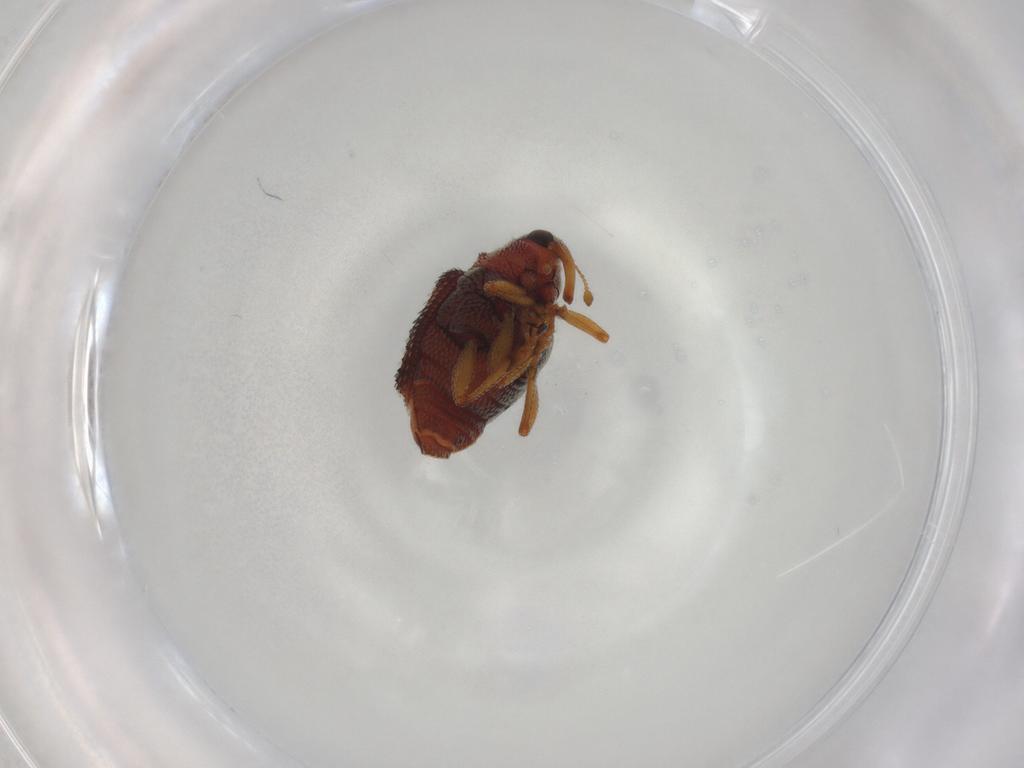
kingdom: Animalia
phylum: Arthropoda
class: Insecta
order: Coleoptera
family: Curculionidae
